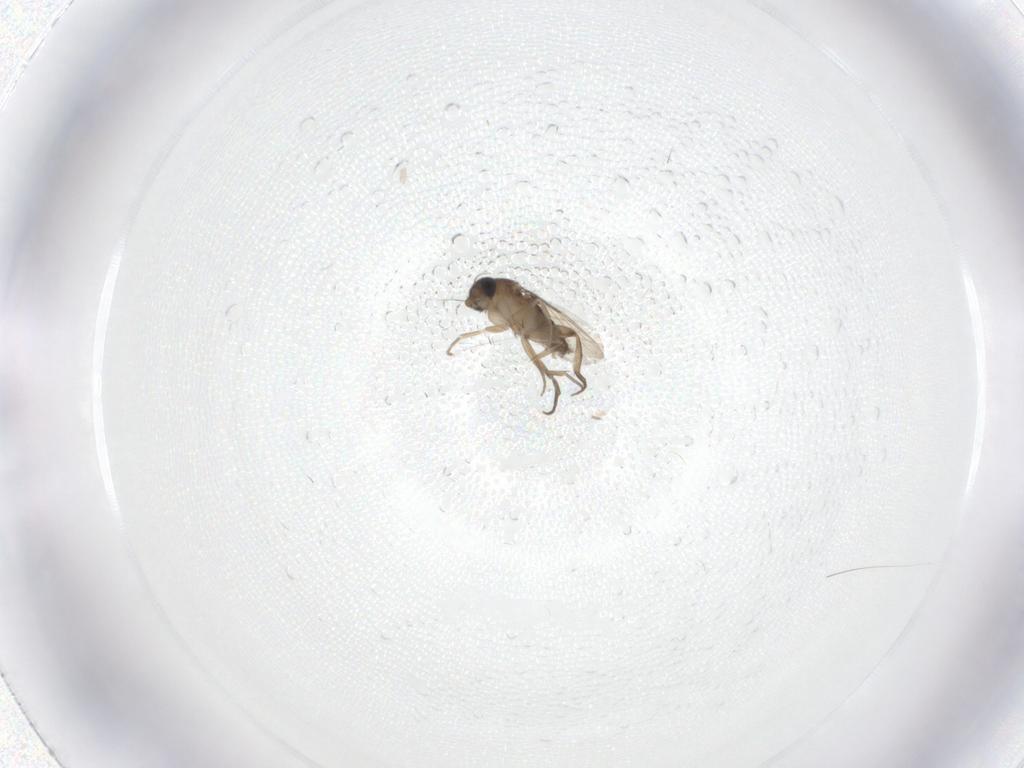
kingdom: Animalia
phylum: Arthropoda
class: Insecta
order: Diptera
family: Phoridae
